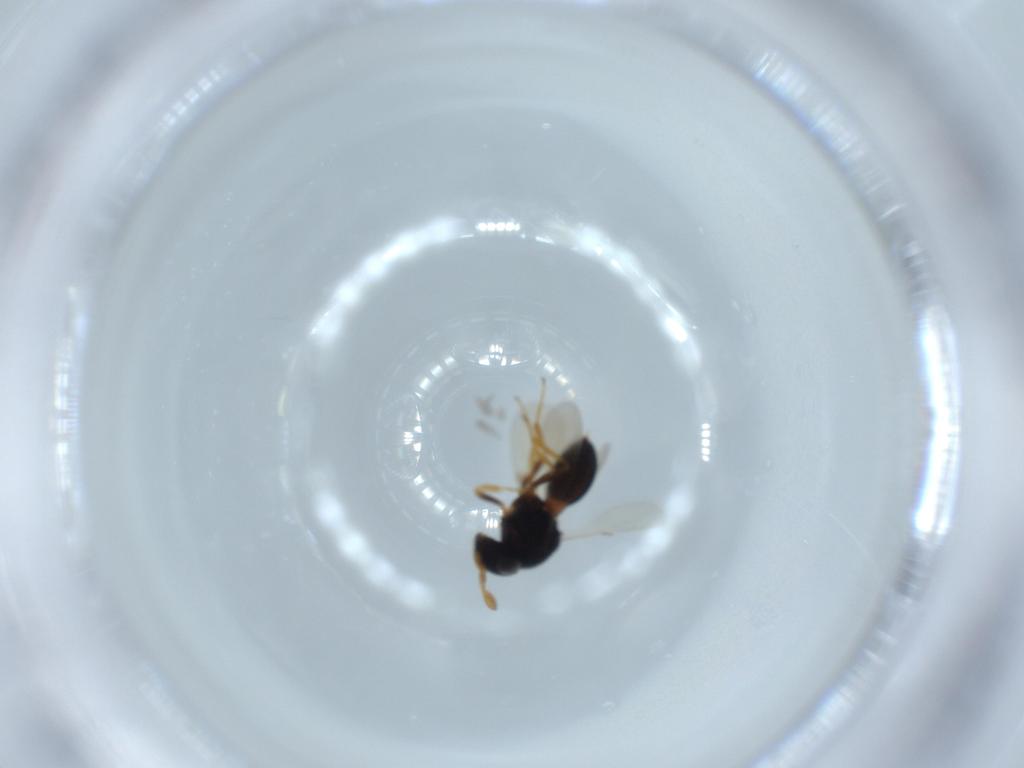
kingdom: Animalia
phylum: Arthropoda
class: Insecta
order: Hymenoptera
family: Scelionidae
